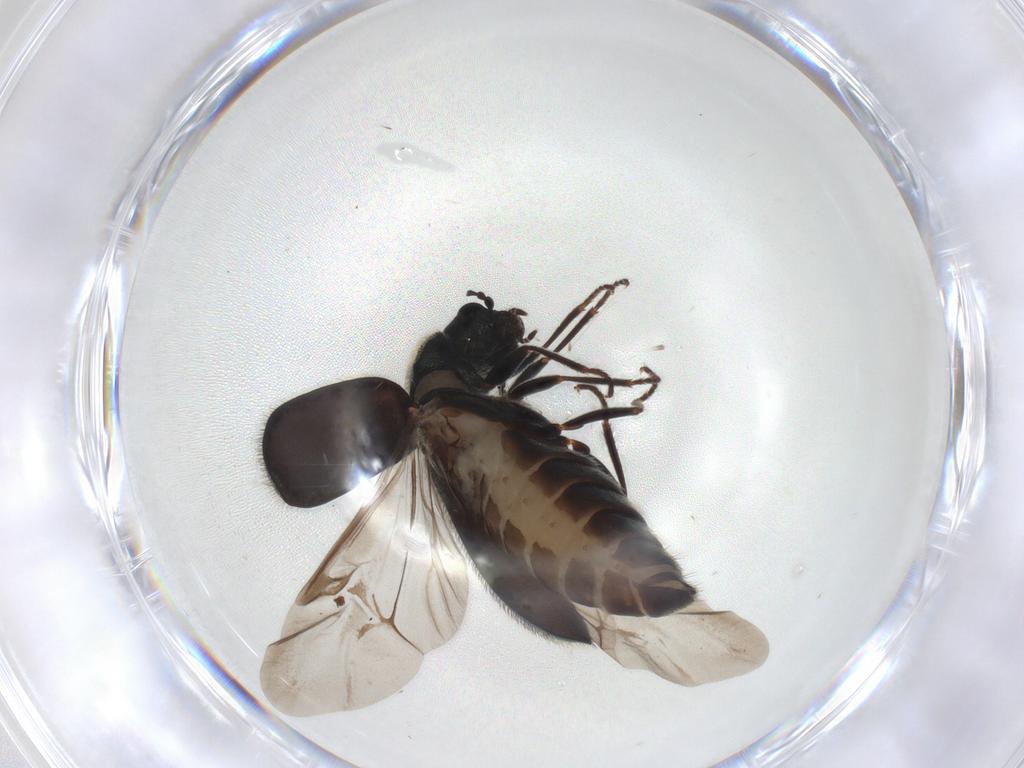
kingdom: Animalia
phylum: Arthropoda
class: Insecta
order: Coleoptera
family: Melyridae
